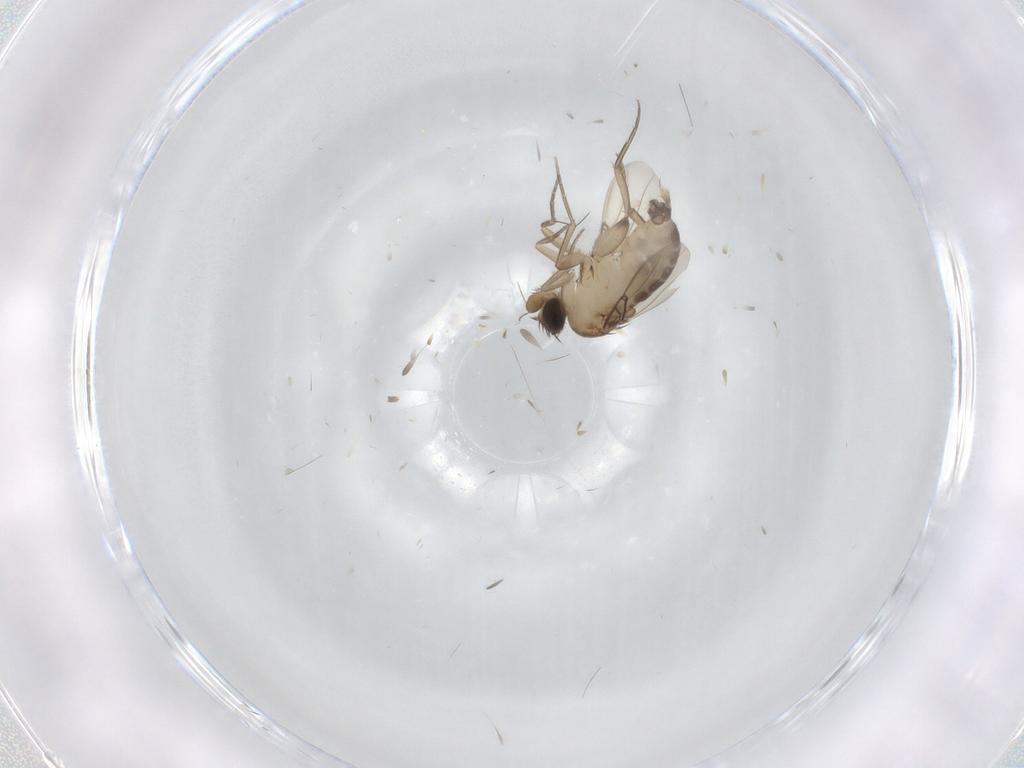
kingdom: Animalia
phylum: Arthropoda
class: Insecta
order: Diptera
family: Phoridae
